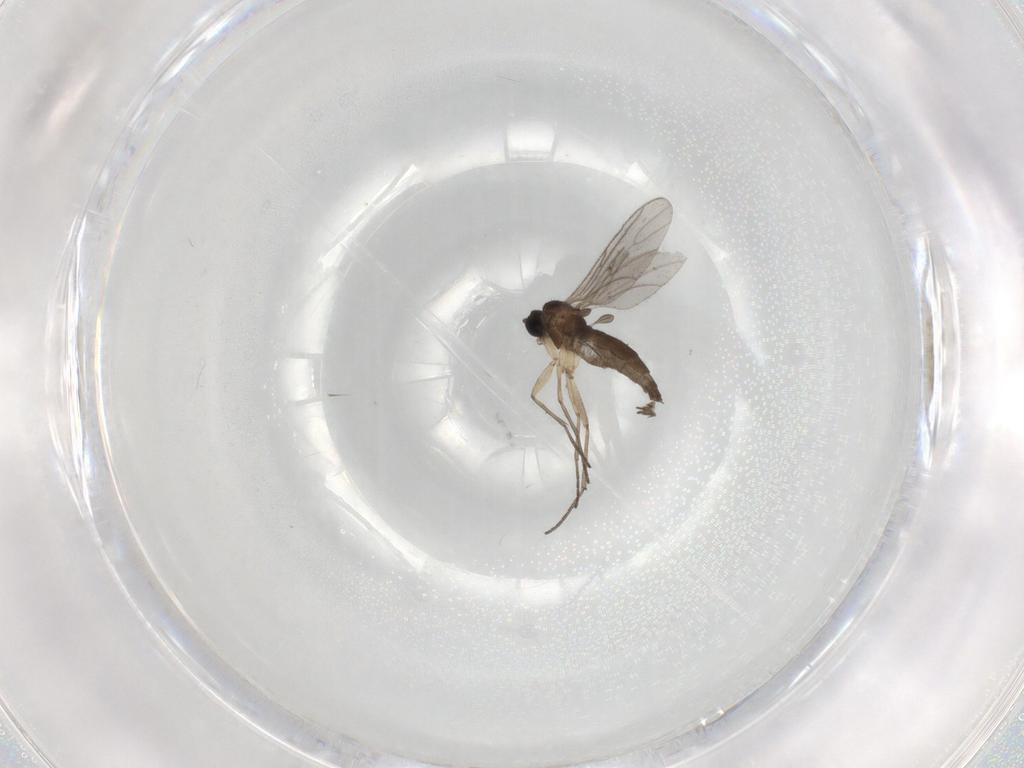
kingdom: Animalia
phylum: Arthropoda
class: Insecta
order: Diptera
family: Sciaridae
